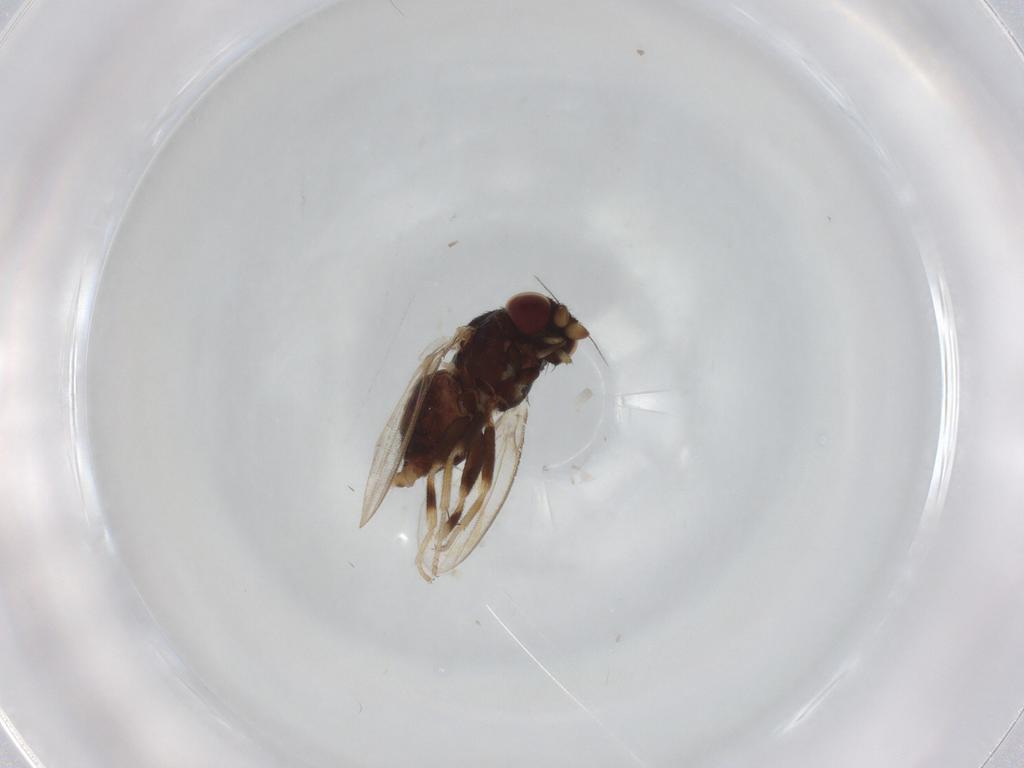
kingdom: Animalia
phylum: Arthropoda
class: Insecta
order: Diptera
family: Milichiidae
